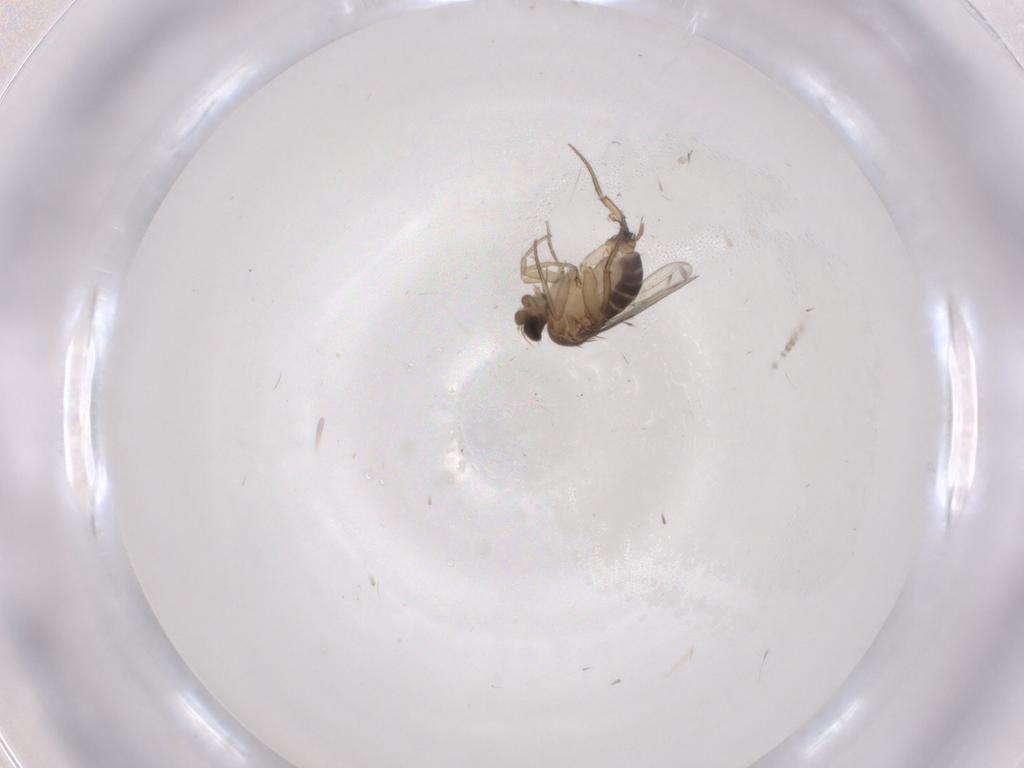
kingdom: Animalia
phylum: Arthropoda
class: Insecta
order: Diptera
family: Phoridae
